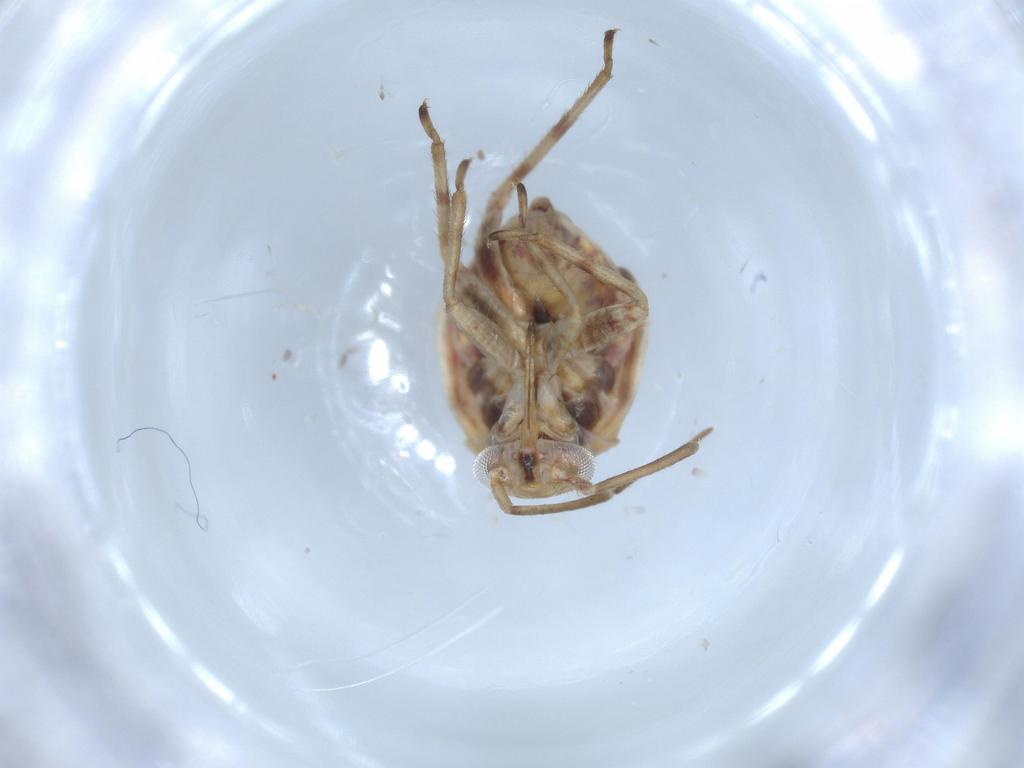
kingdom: Animalia
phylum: Arthropoda
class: Insecta
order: Hemiptera
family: Miridae
